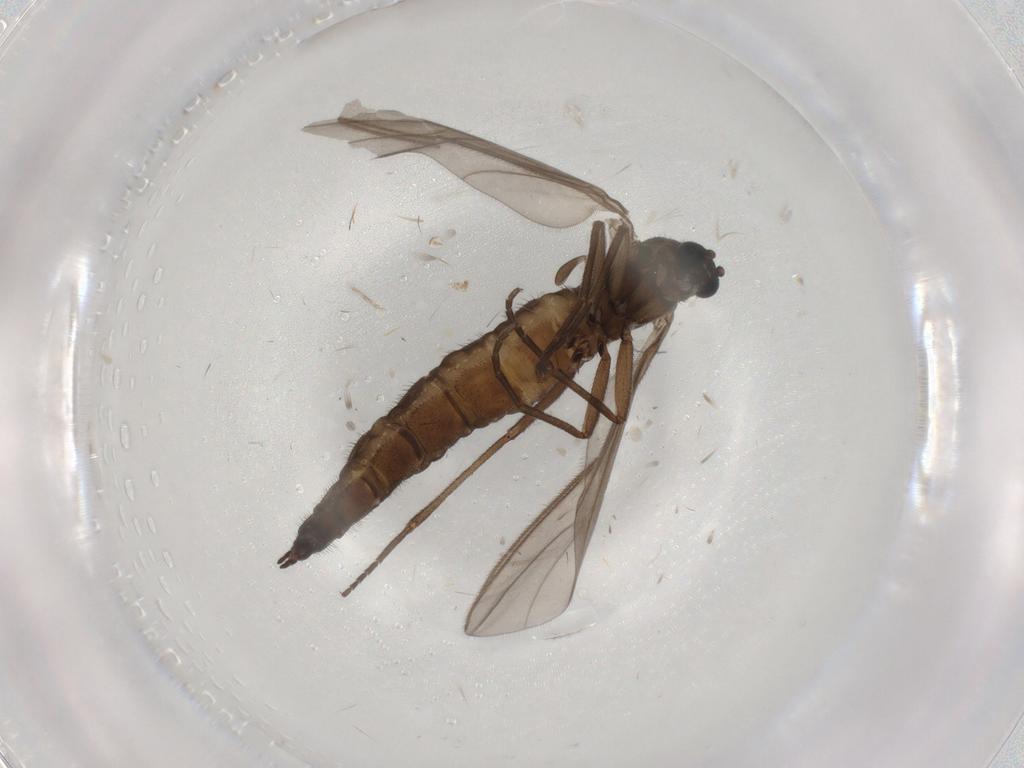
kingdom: Animalia
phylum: Arthropoda
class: Insecta
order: Diptera
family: Sciaridae
